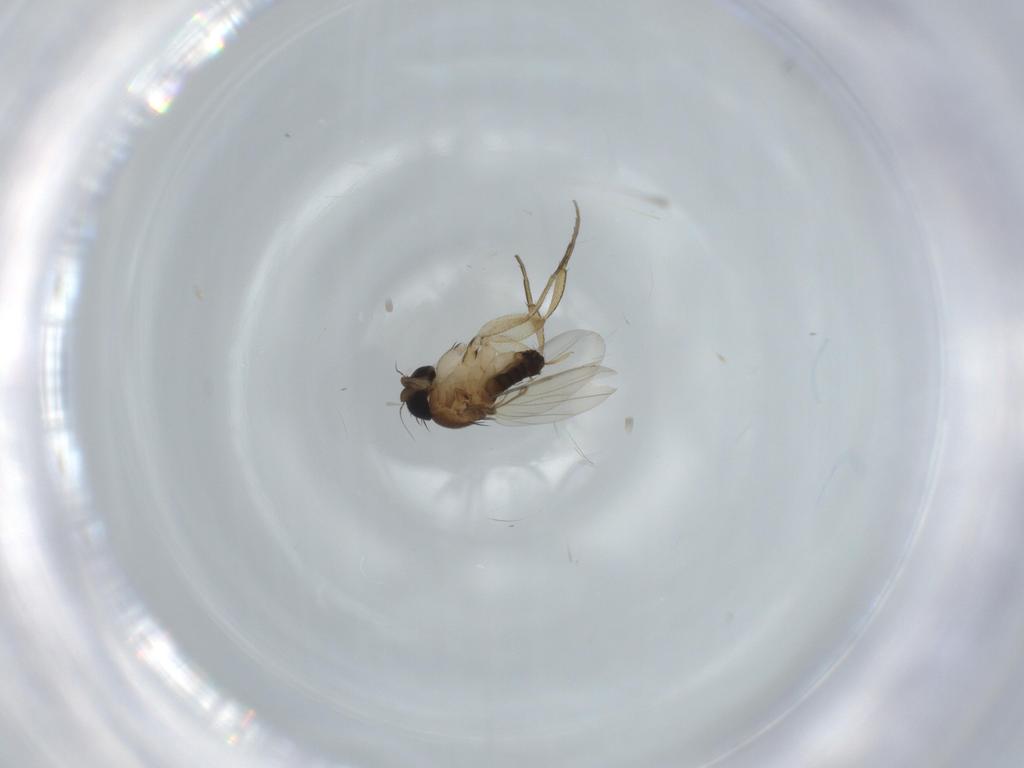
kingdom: Animalia
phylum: Arthropoda
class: Insecta
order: Diptera
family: Phoridae
